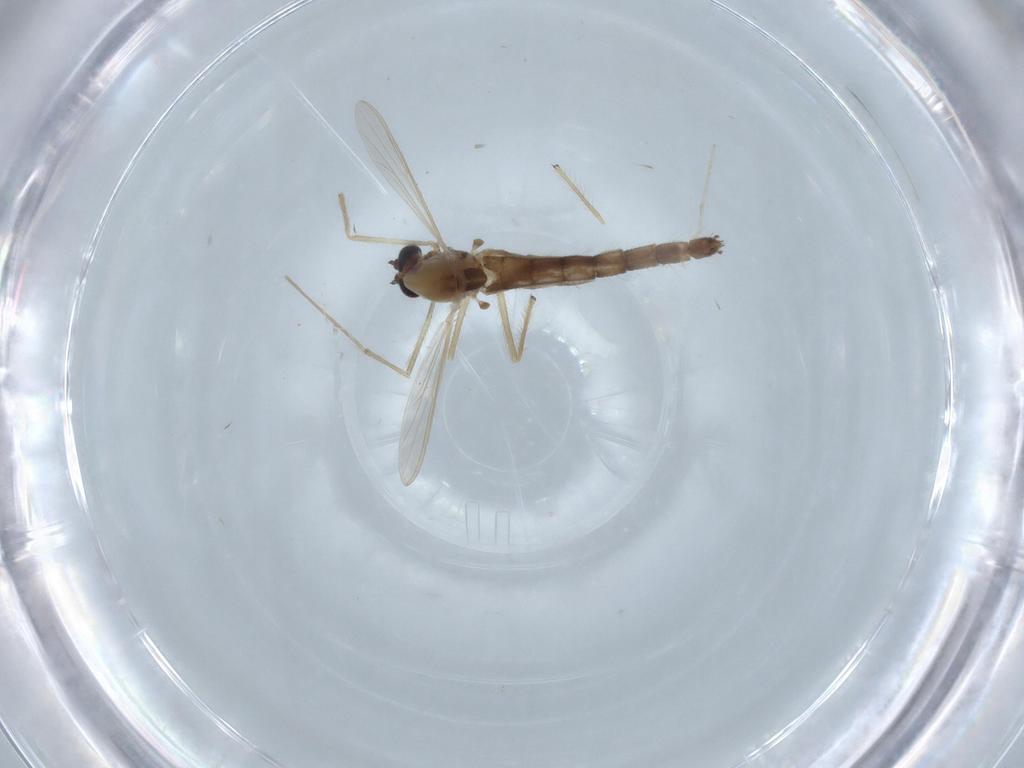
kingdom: Animalia
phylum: Arthropoda
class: Insecta
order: Diptera
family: Chironomidae
